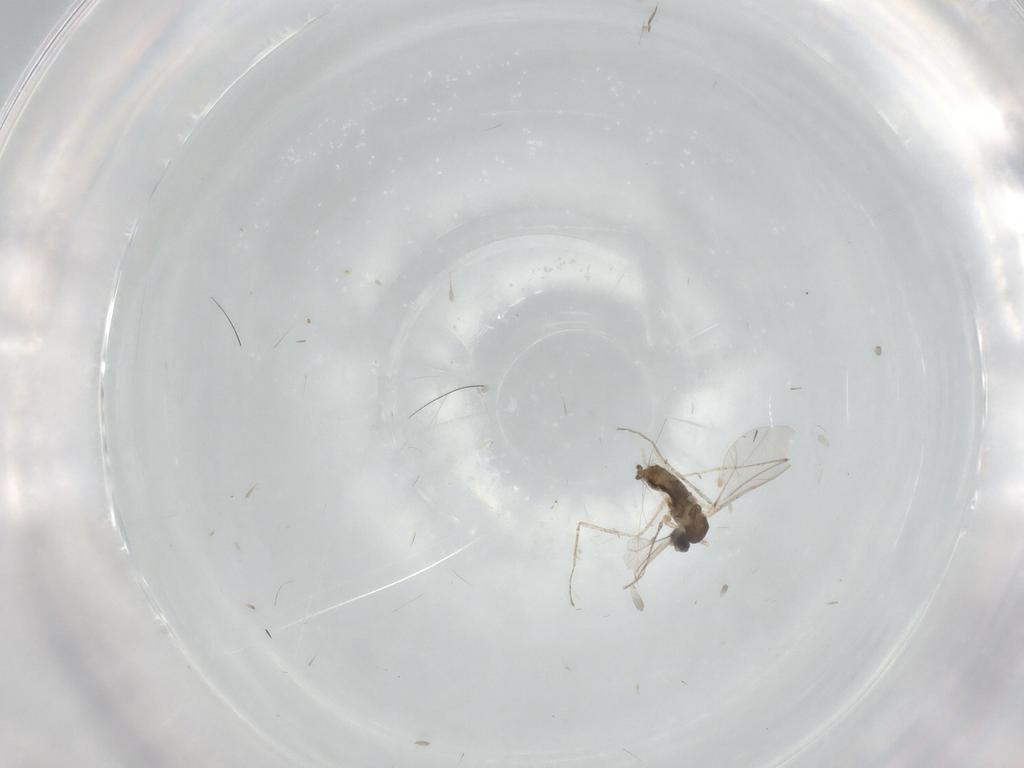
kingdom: Animalia
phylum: Arthropoda
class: Insecta
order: Diptera
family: Cecidomyiidae
